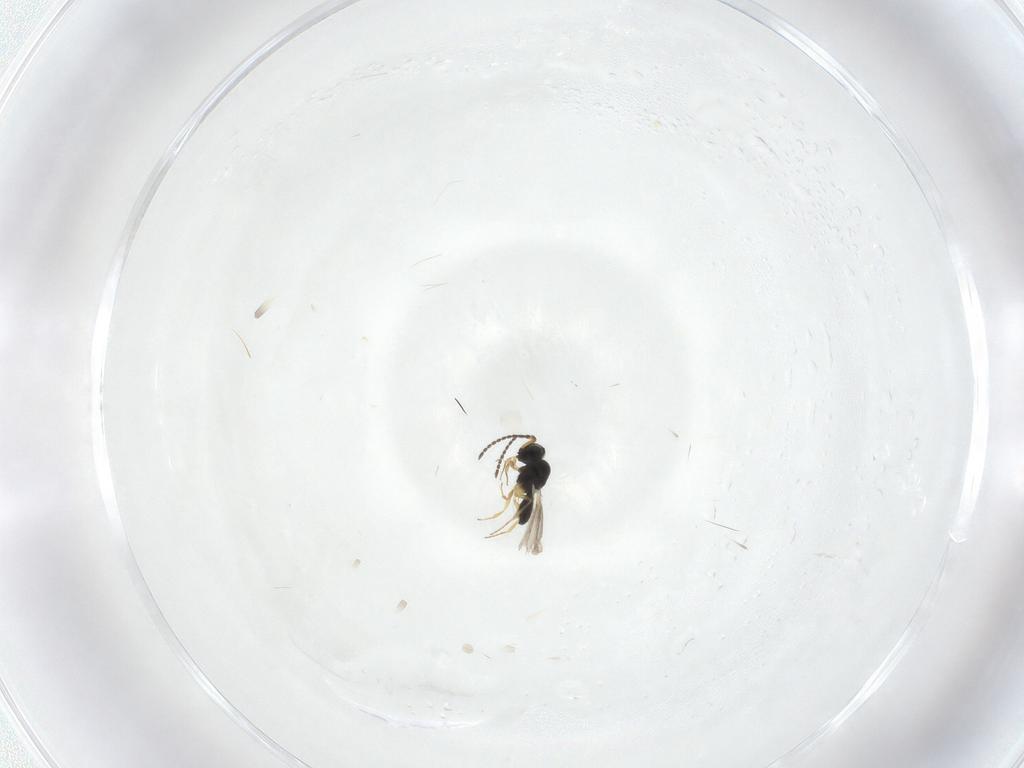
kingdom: Animalia
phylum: Arthropoda
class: Insecta
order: Hymenoptera
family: Scelionidae
